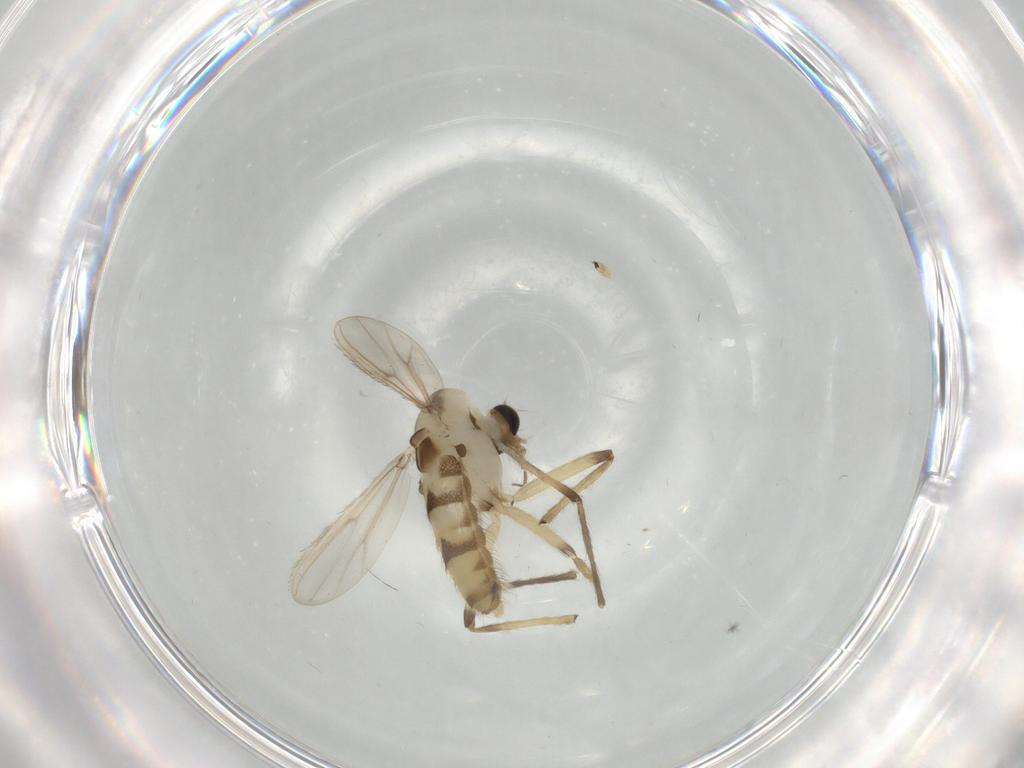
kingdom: Animalia
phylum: Arthropoda
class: Insecta
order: Diptera
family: Chironomidae
